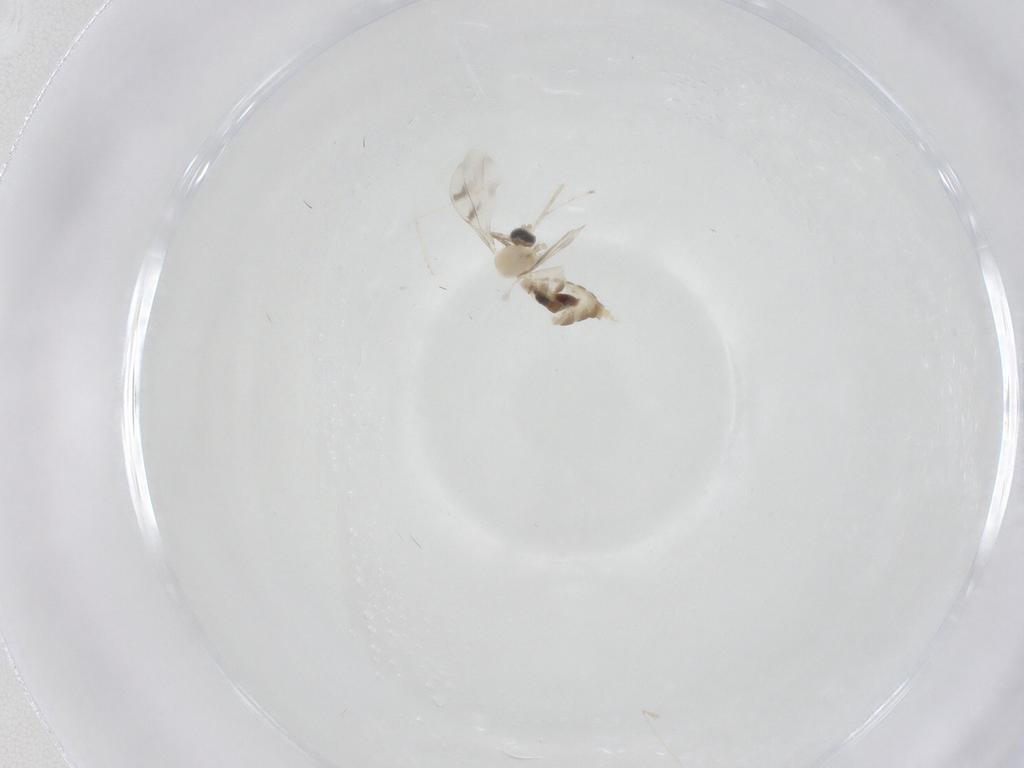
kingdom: Animalia
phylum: Arthropoda
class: Insecta
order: Diptera
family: Cecidomyiidae
